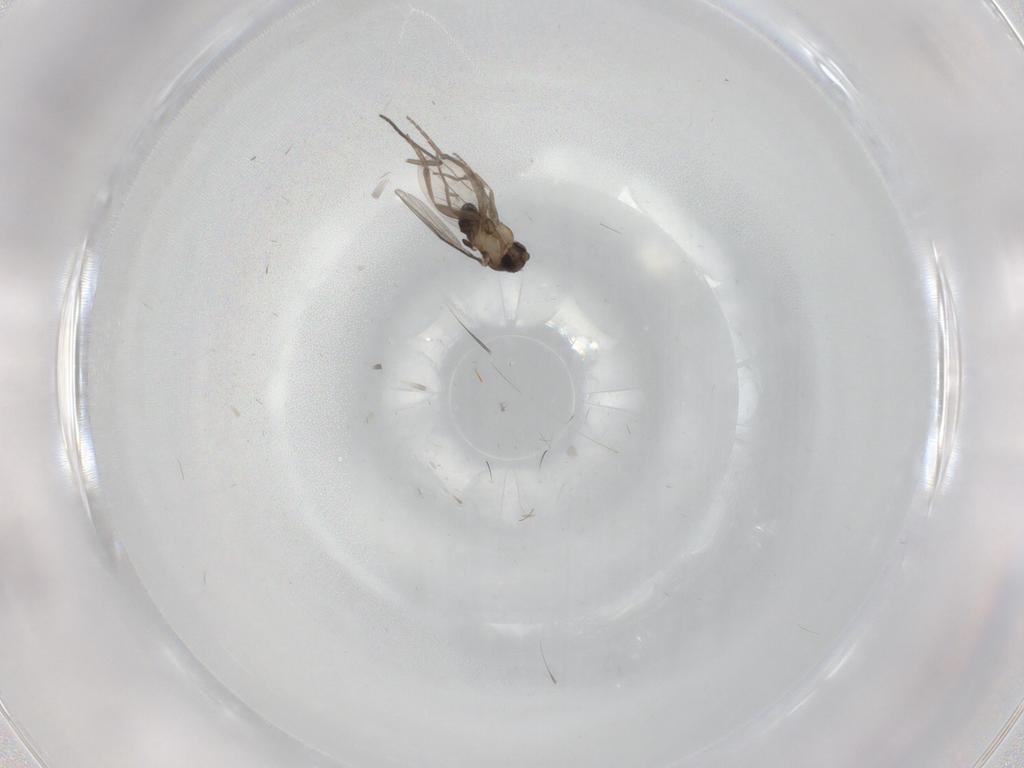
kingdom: Animalia
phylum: Arthropoda
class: Insecta
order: Diptera
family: Phoridae
